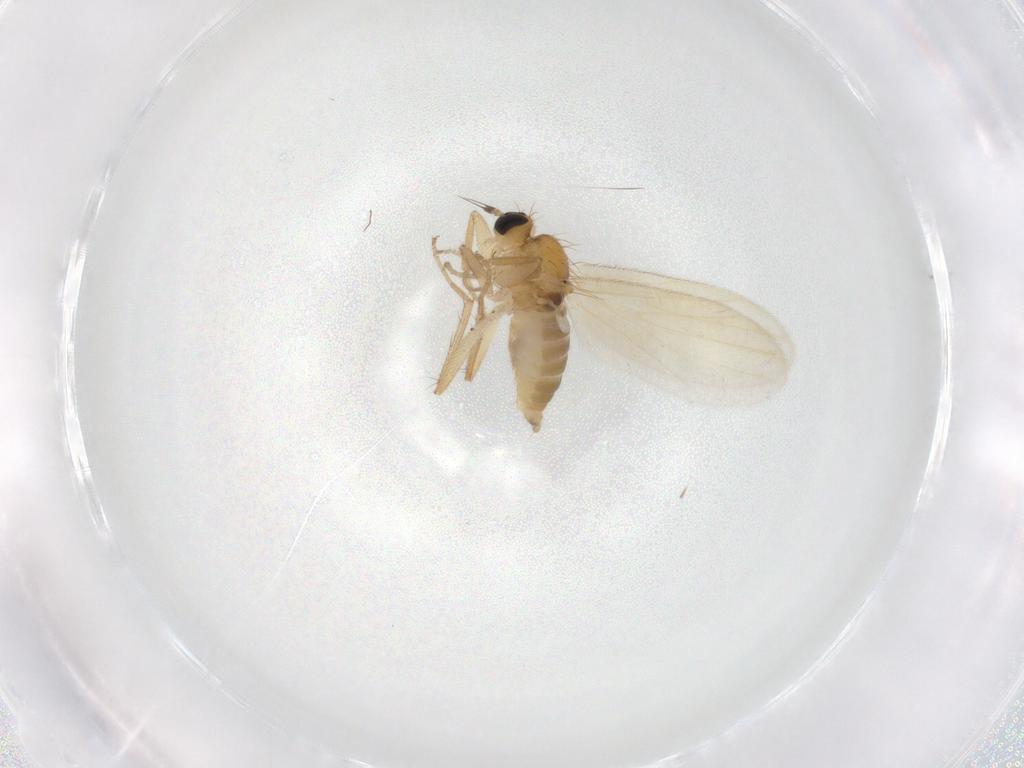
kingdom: Animalia
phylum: Arthropoda
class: Insecta
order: Diptera
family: Hybotidae
